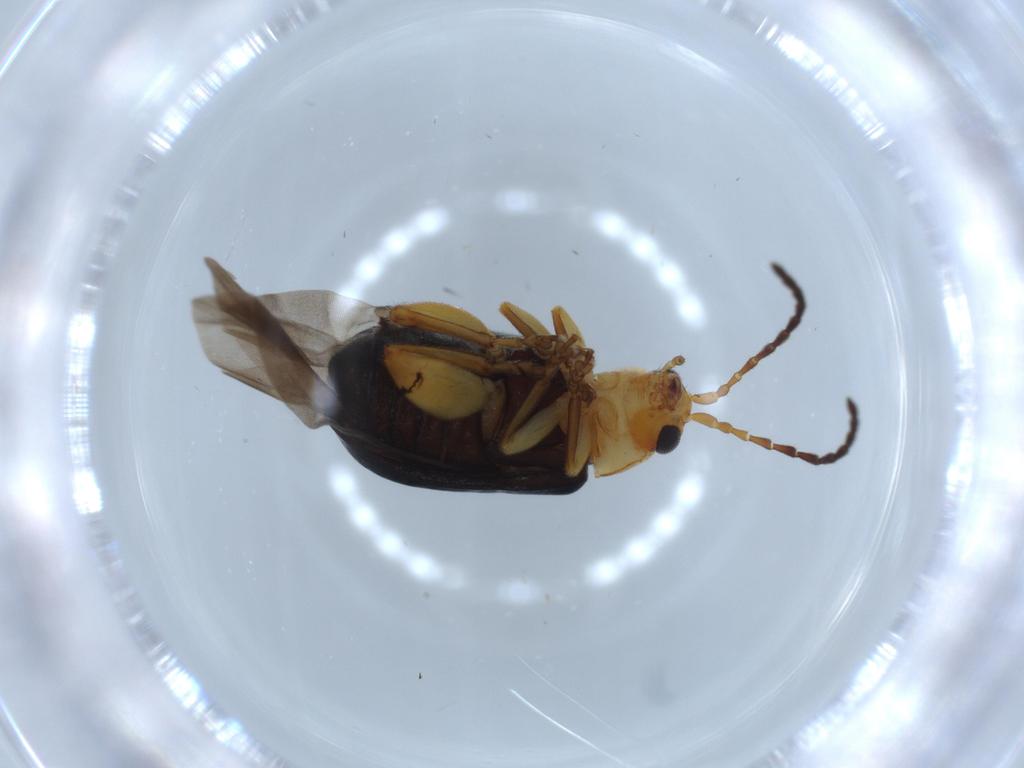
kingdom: Animalia
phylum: Arthropoda
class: Insecta
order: Coleoptera
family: Chrysomelidae
